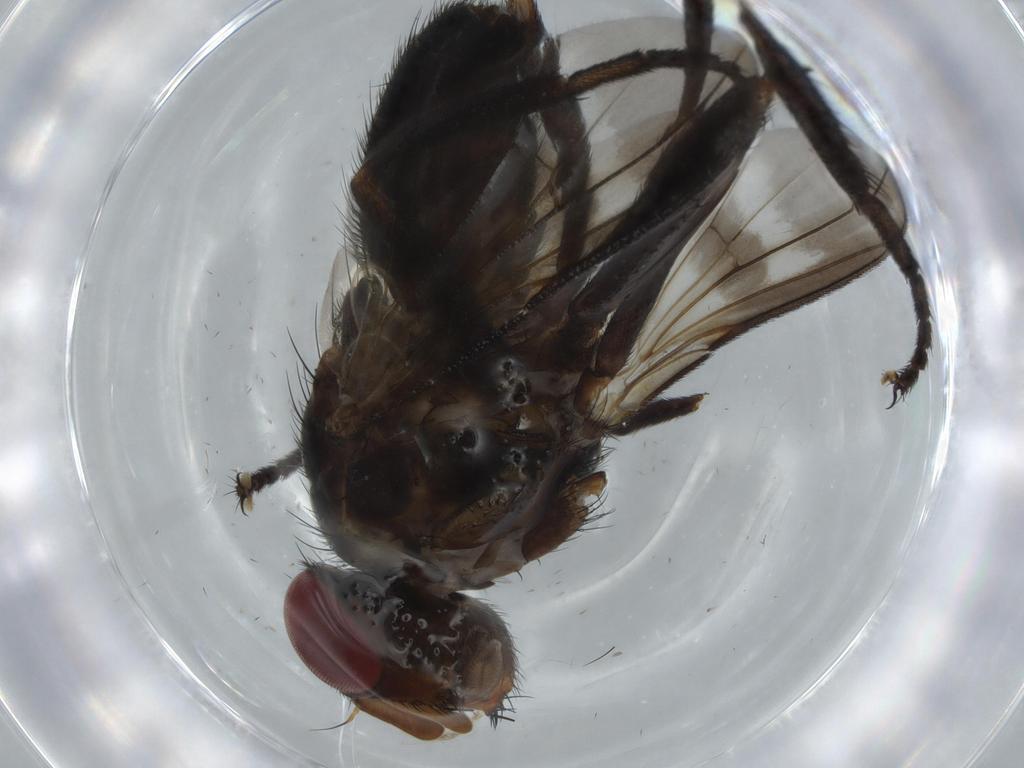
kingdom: Animalia
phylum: Arthropoda
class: Insecta
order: Diptera
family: Calliphoridae
